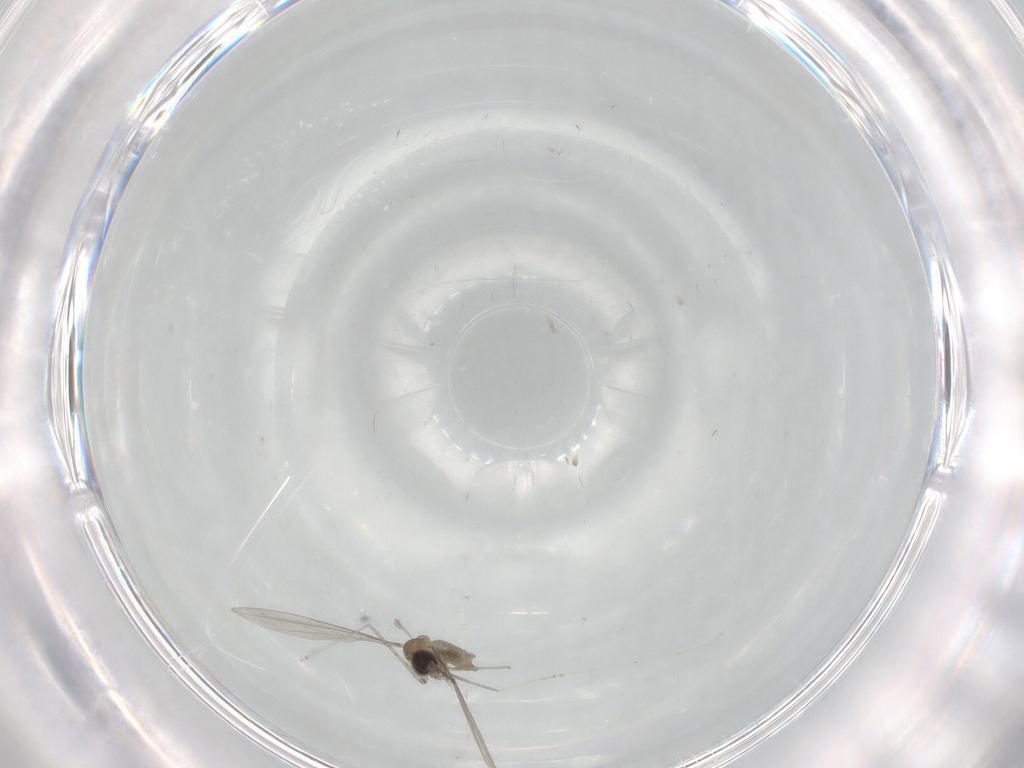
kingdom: Animalia
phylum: Arthropoda
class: Insecta
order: Diptera
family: Cecidomyiidae
